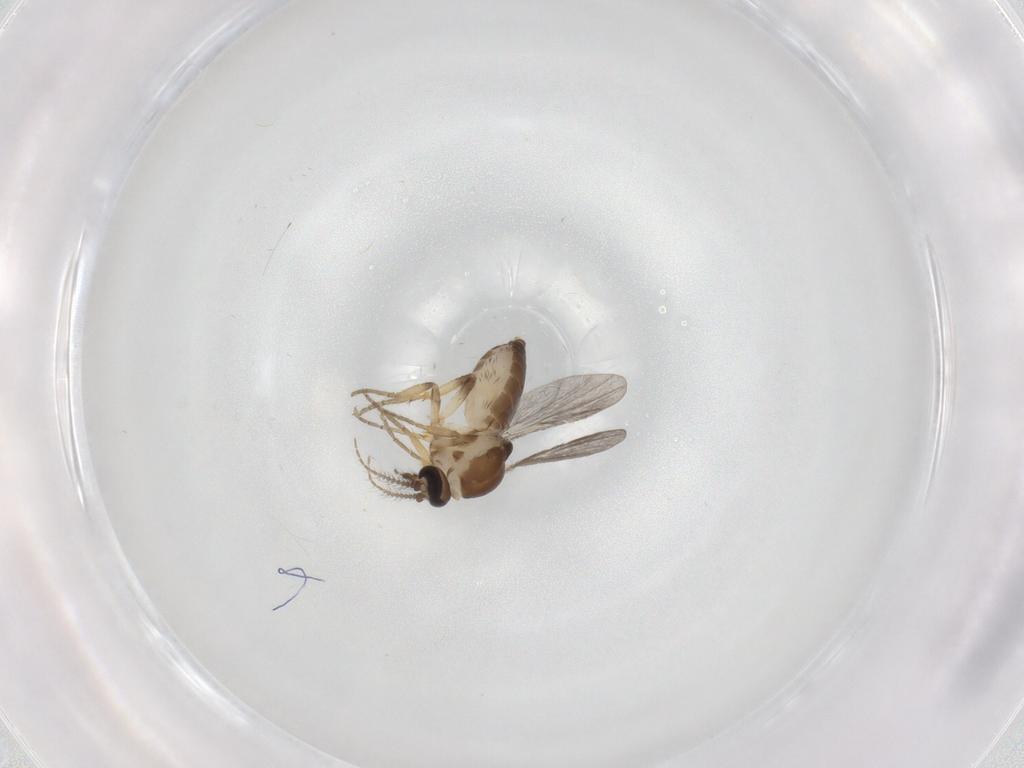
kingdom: Animalia
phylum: Arthropoda
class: Insecta
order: Diptera
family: Ceratopogonidae
